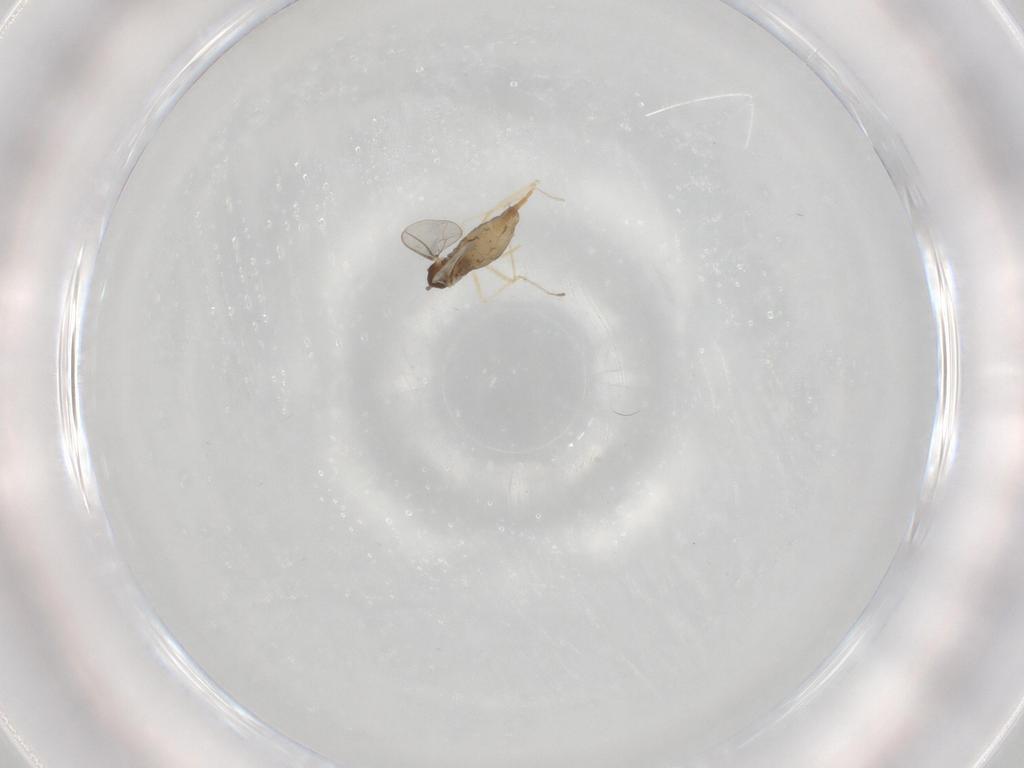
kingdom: Animalia
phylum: Arthropoda
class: Insecta
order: Diptera
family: Cecidomyiidae
